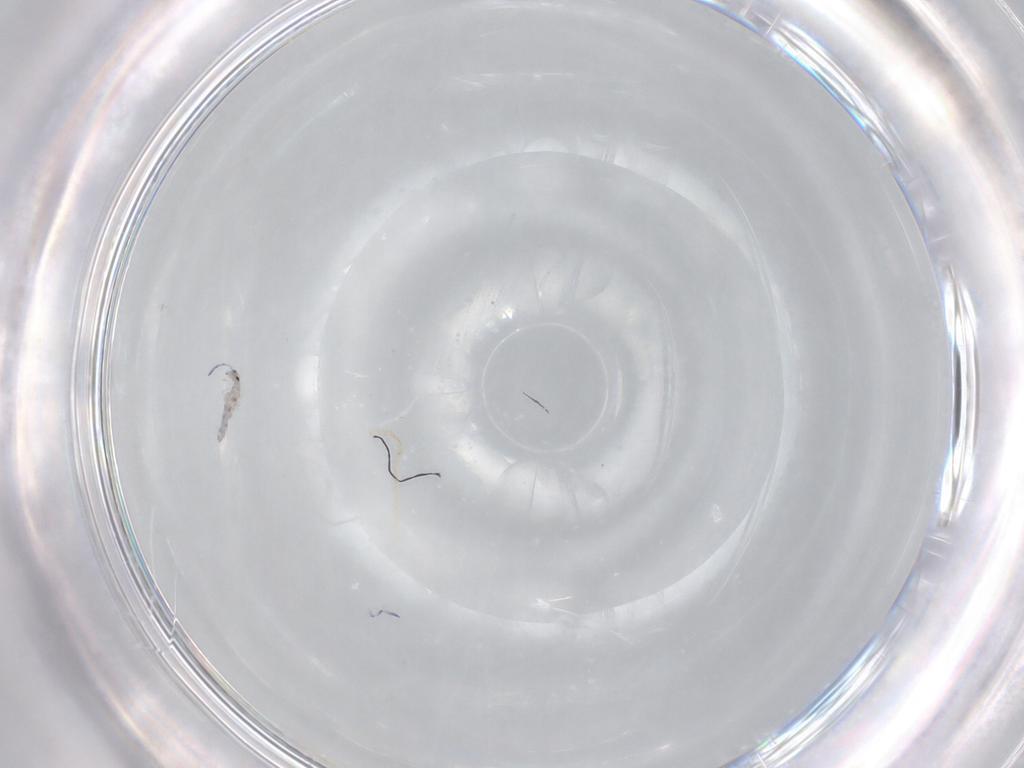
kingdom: Animalia
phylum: Arthropoda
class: Collembola
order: Entomobryomorpha
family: Entomobryidae
